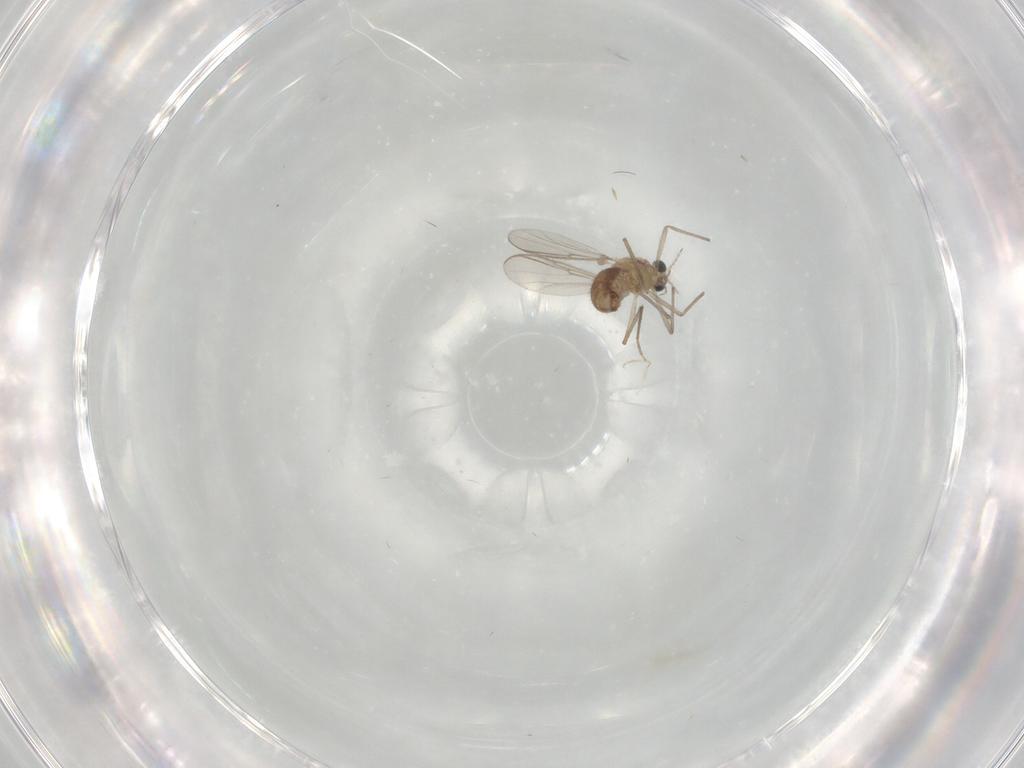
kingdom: Animalia
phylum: Arthropoda
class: Insecta
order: Diptera
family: Chironomidae
